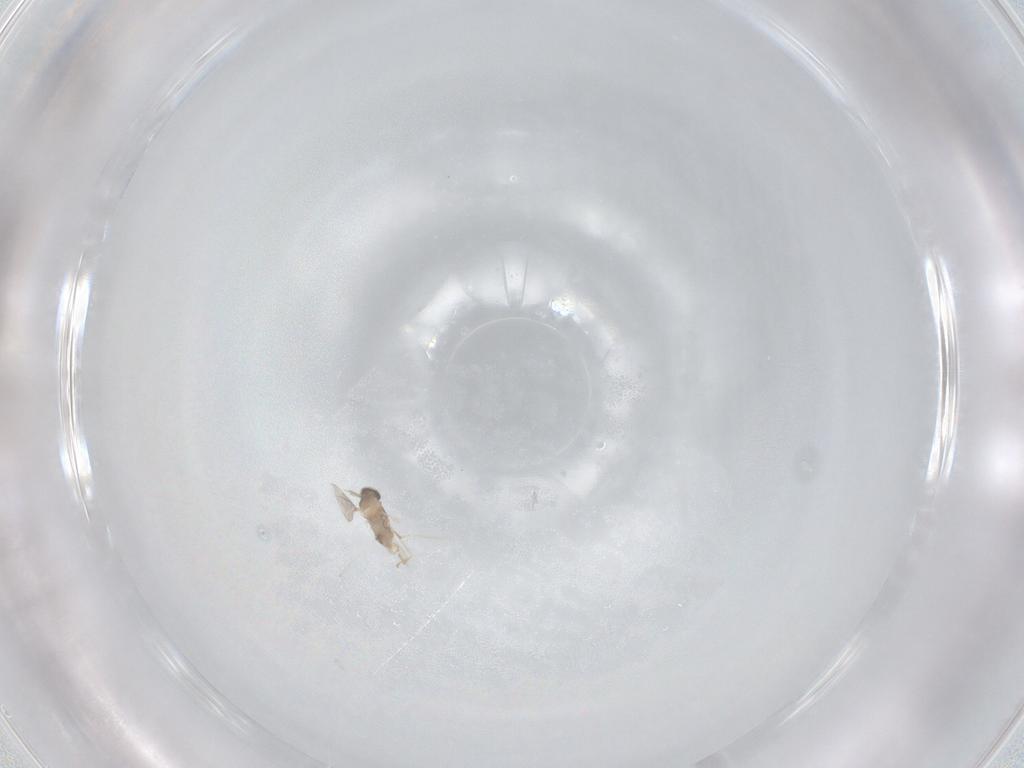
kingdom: Animalia
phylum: Arthropoda
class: Insecta
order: Diptera
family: Cecidomyiidae
